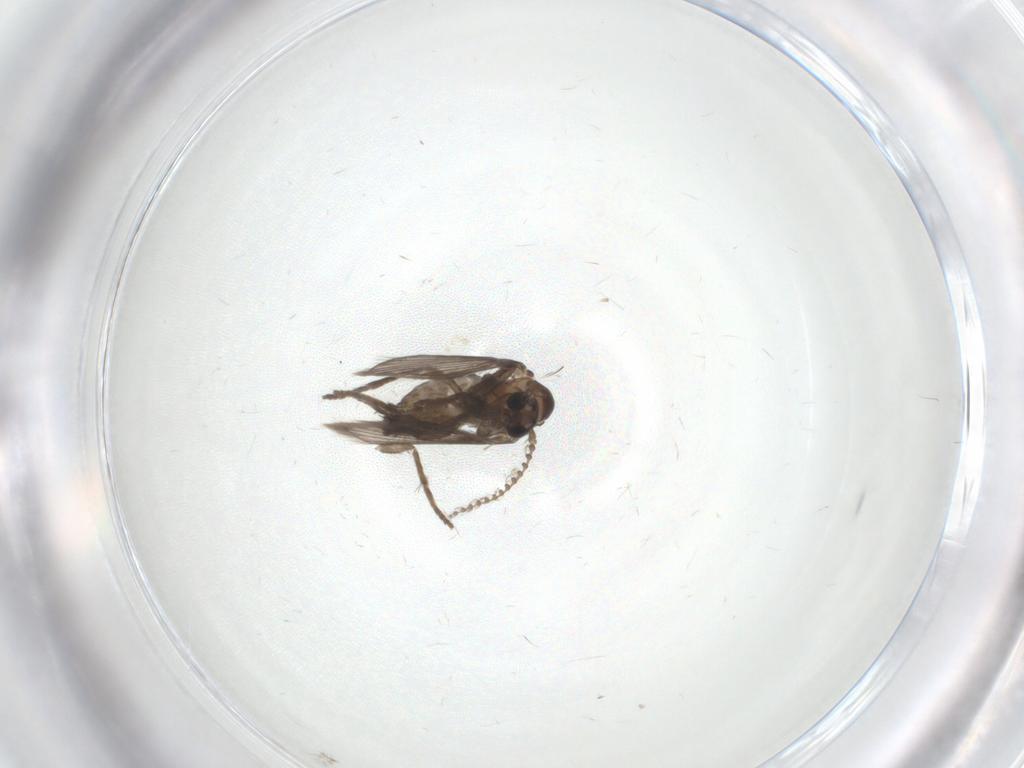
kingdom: Animalia
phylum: Arthropoda
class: Insecta
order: Diptera
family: Psychodidae
